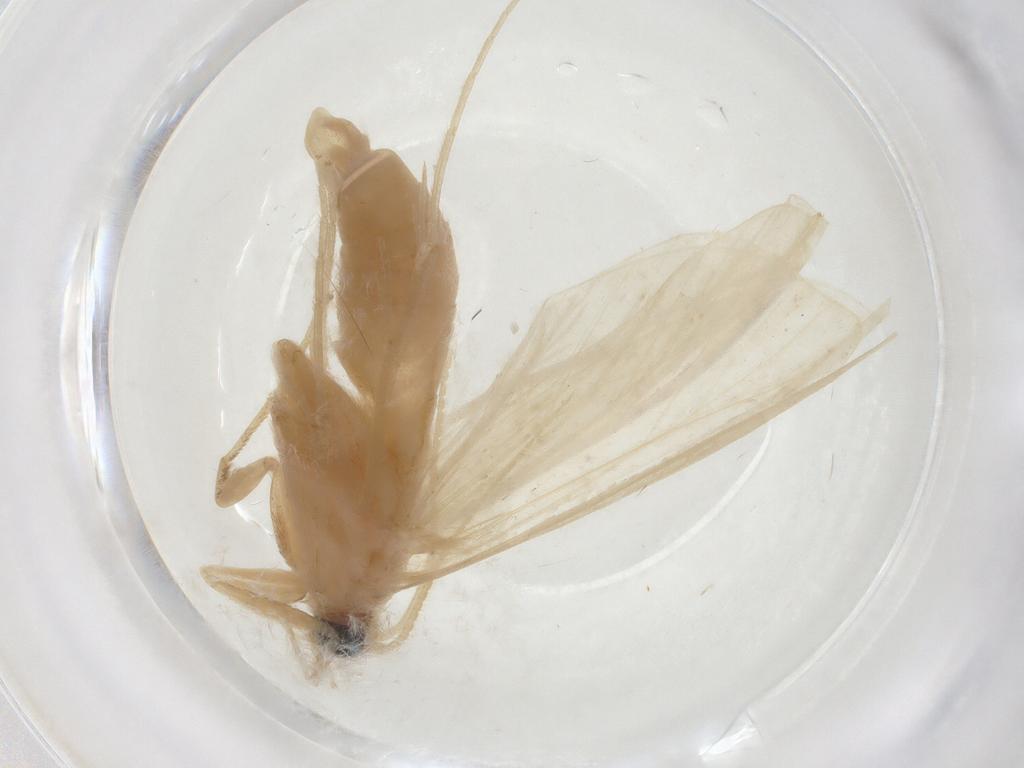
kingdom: Animalia
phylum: Arthropoda
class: Insecta
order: Lepidoptera
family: Crambidae
